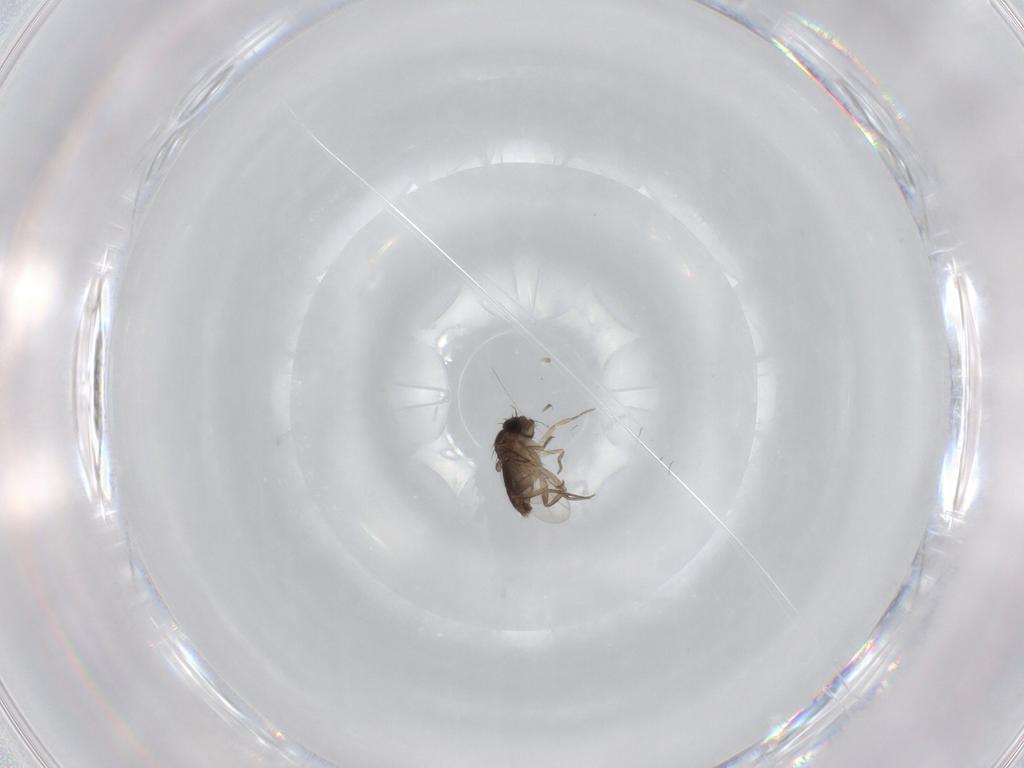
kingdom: Animalia
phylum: Arthropoda
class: Insecta
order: Diptera
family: Phoridae
